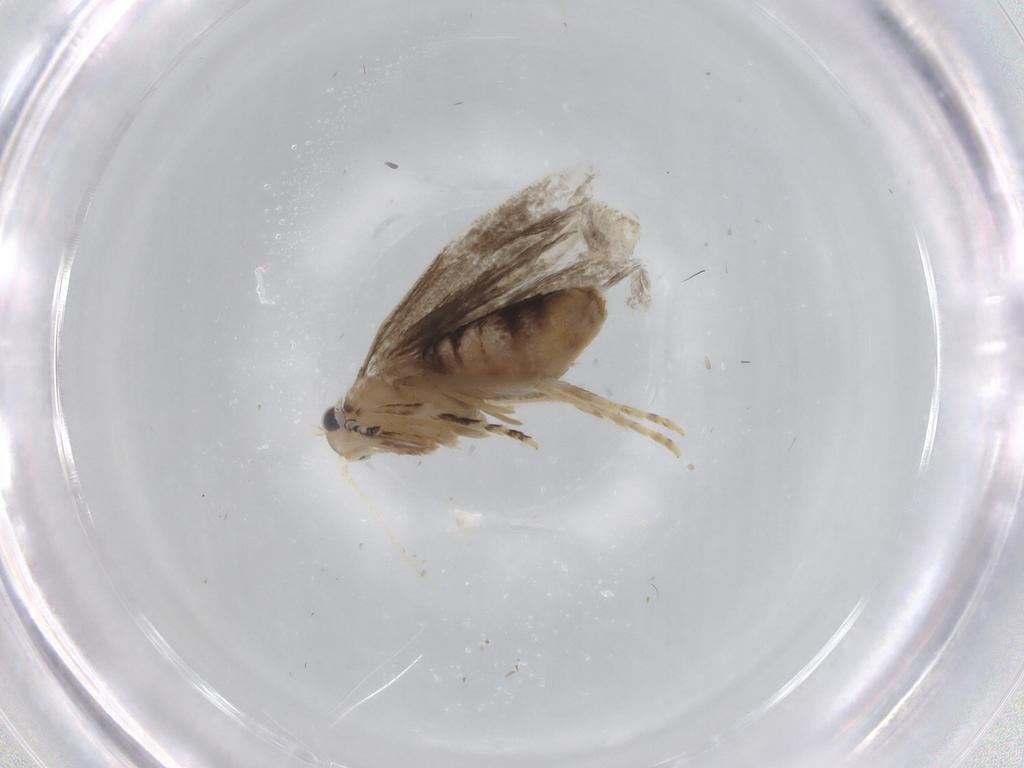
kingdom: Animalia
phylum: Arthropoda
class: Insecta
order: Lepidoptera
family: Tineidae
